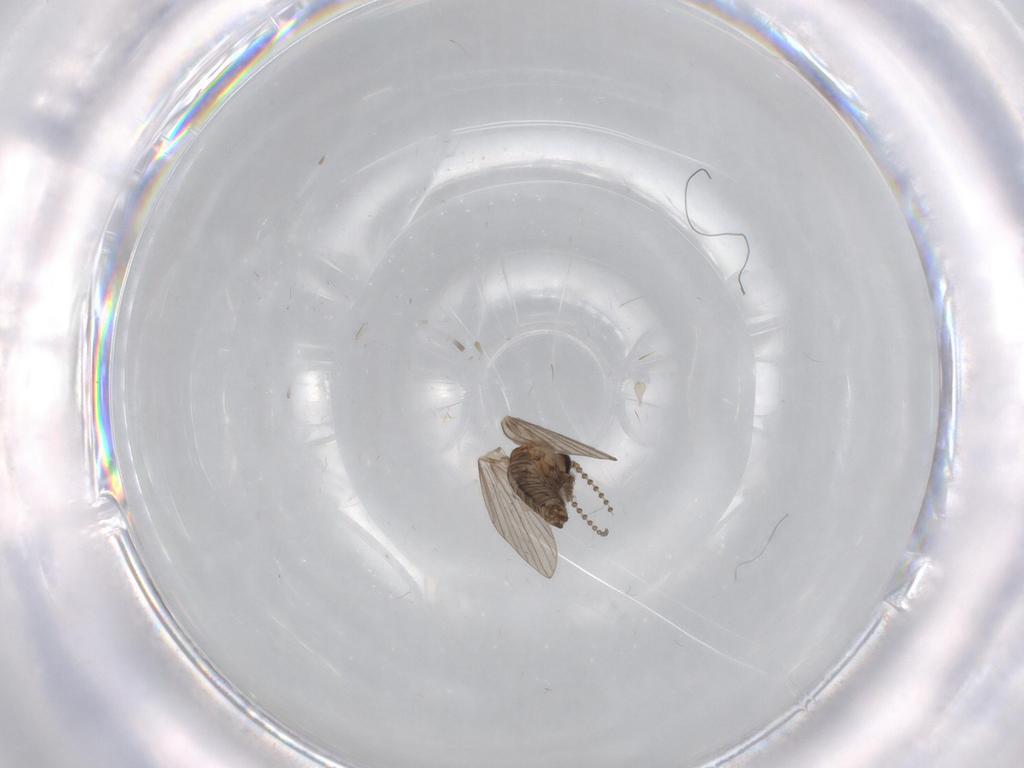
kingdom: Animalia
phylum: Arthropoda
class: Insecta
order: Diptera
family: Psychodidae
